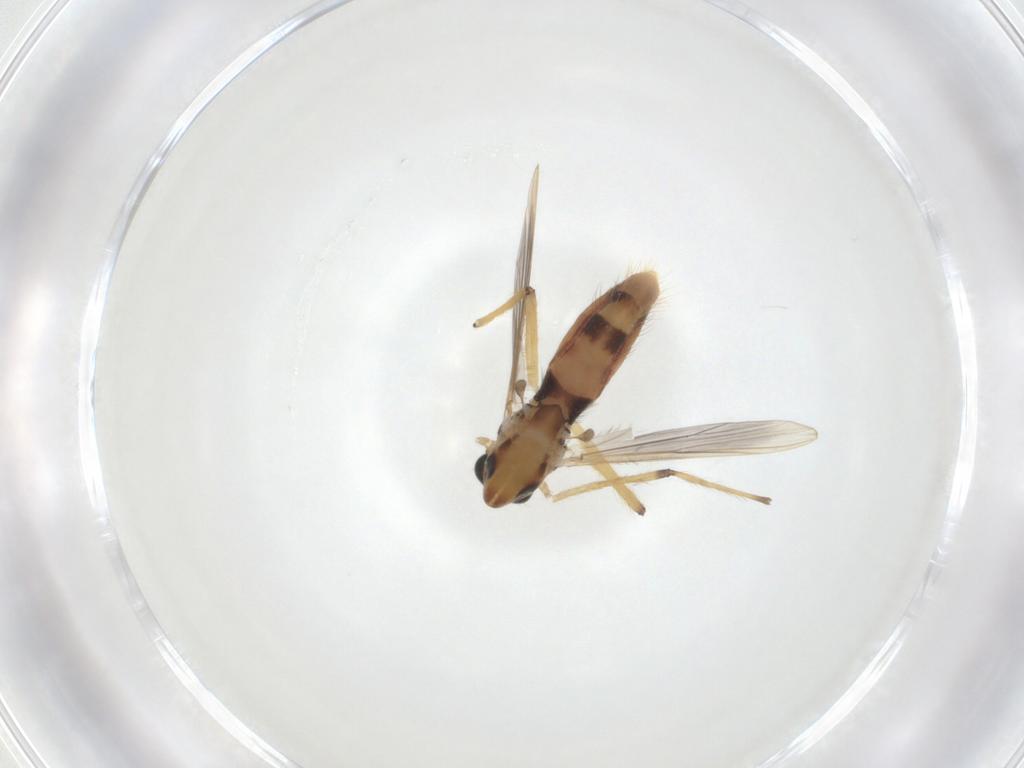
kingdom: Animalia
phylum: Arthropoda
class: Insecta
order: Diptera
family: Chironomidae
